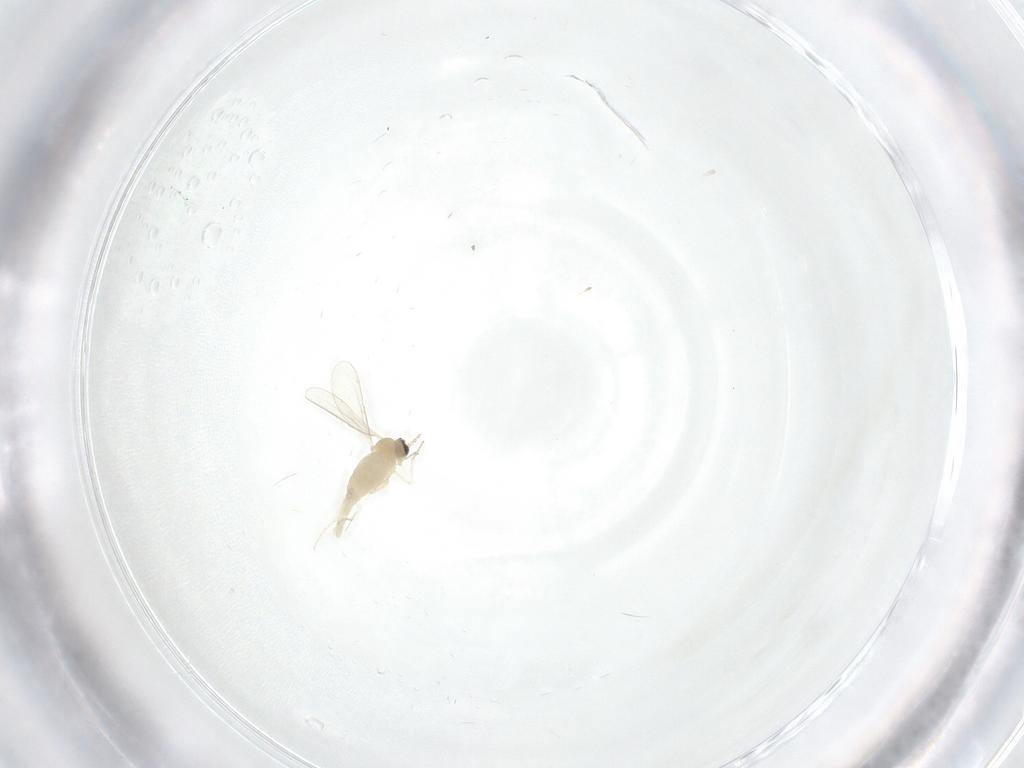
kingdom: Animalia
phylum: Arthropoda
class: Insecta
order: Diptera
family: Cecidomyiidae
